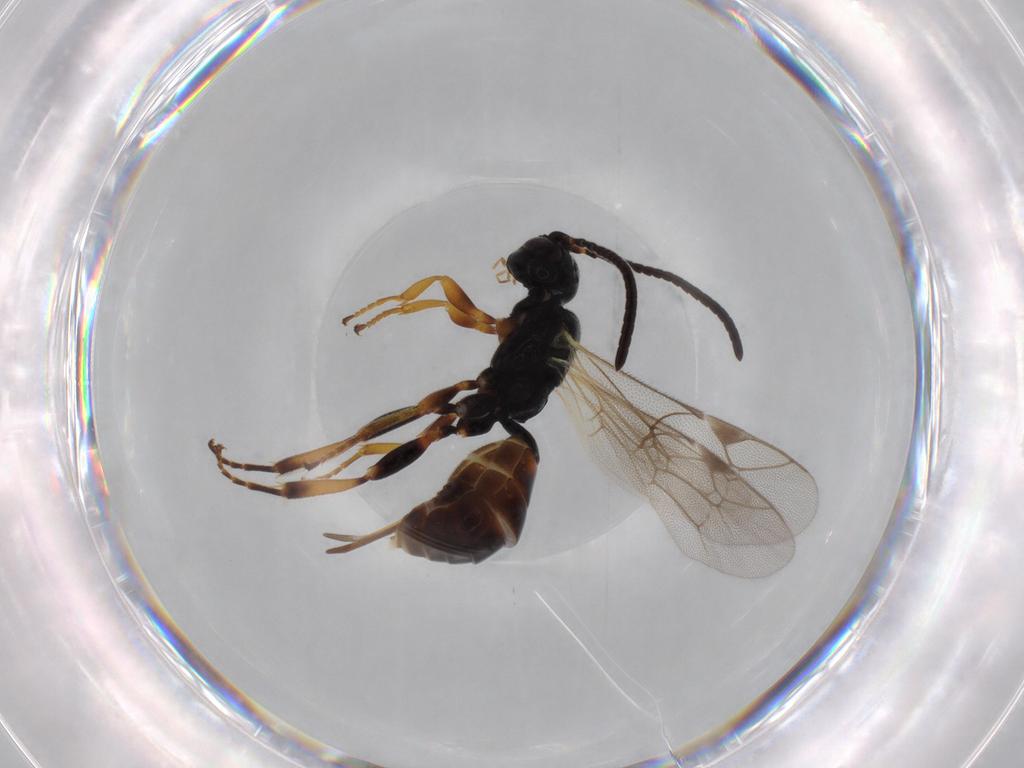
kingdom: Animalia
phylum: Arthropoda
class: Insecta
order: Hymenoptera
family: Ichneumonidae
